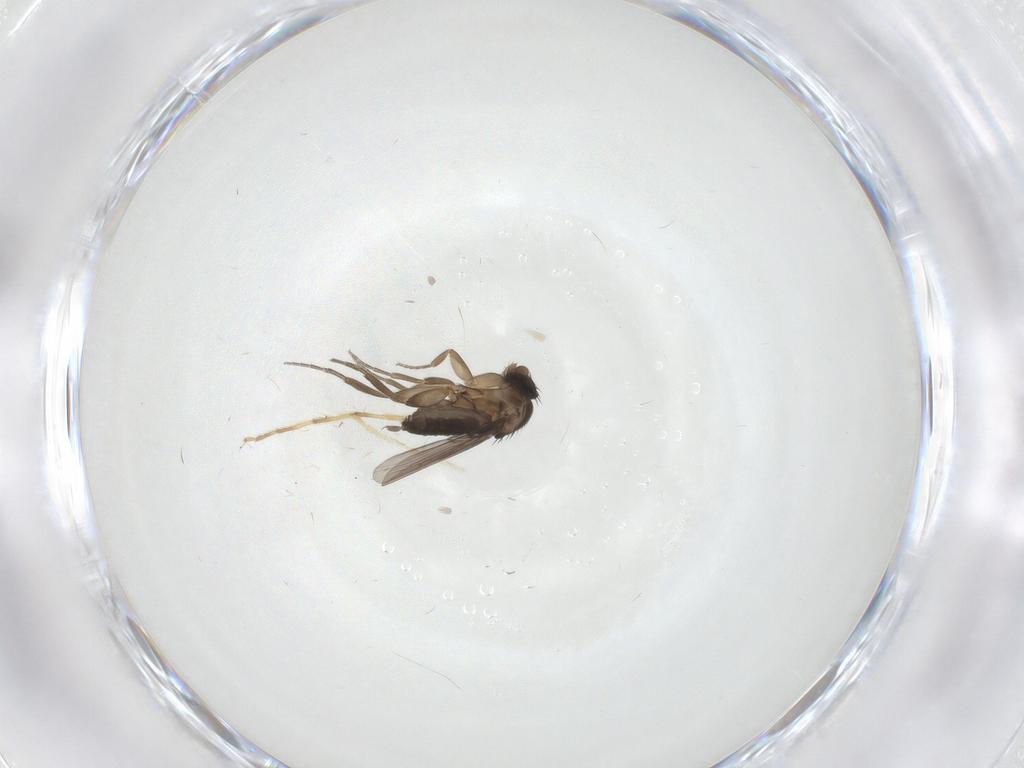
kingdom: Animalia
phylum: Arthropoda
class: Insecta
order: Diptera
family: Phoridae
